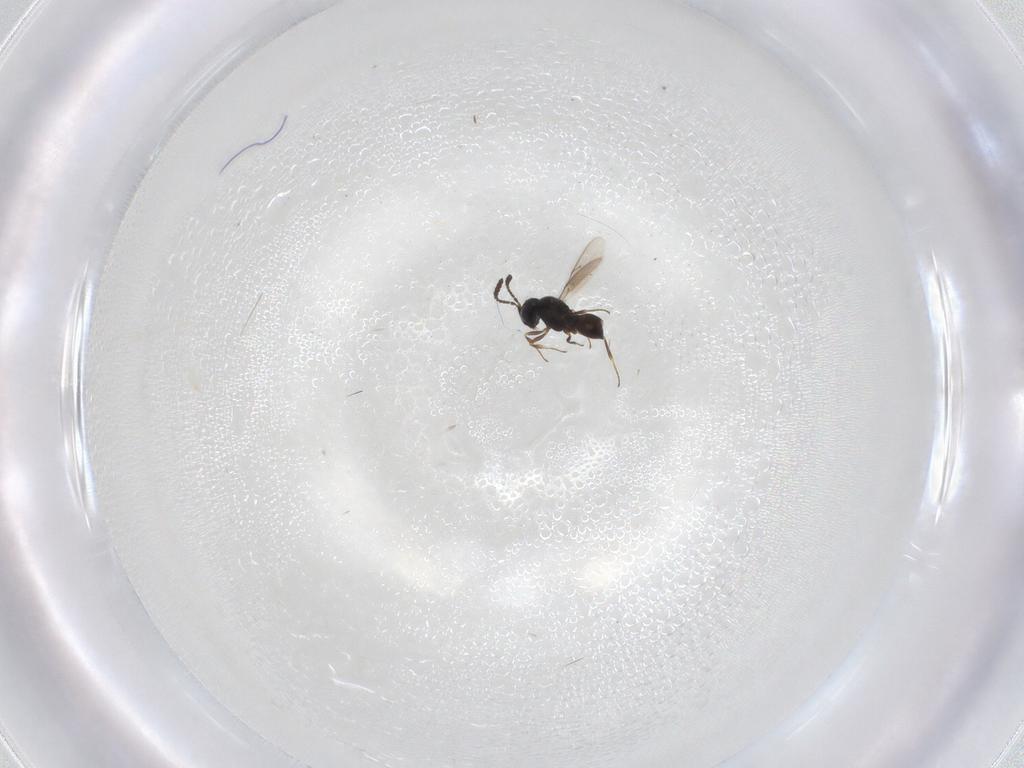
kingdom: Animalia
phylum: Arthropoda
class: Insecta
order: Hymenoptera
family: Scelionidae
